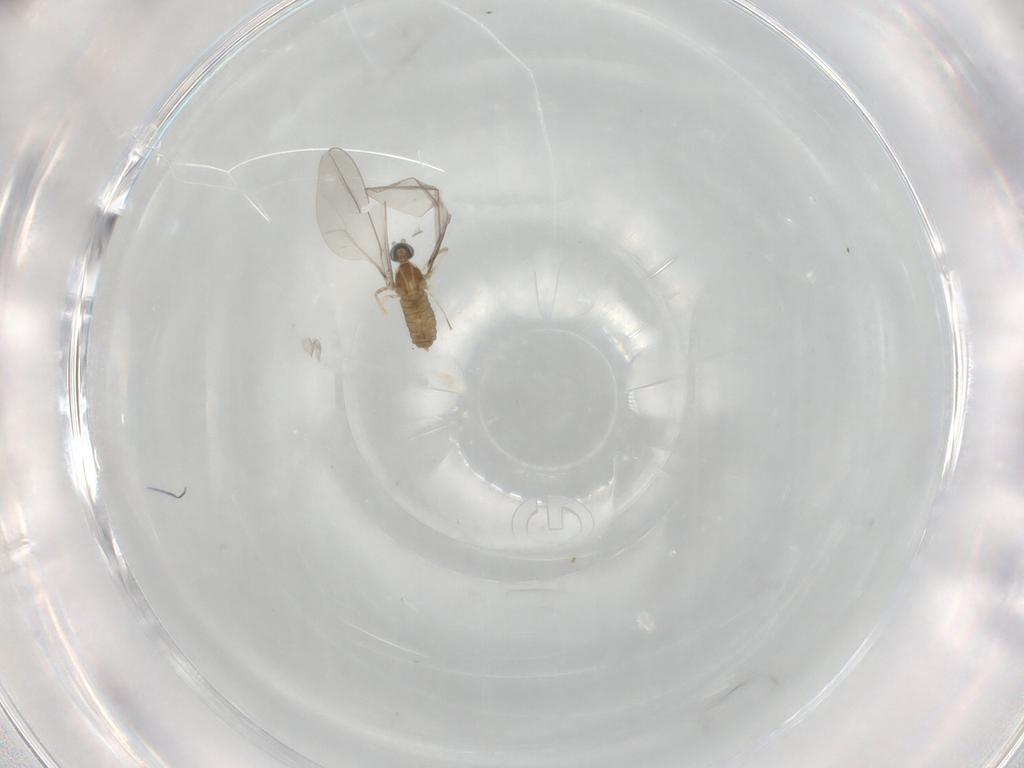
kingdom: Animalia
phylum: Arthropoda
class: Insecta
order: Diptera
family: Cecidomyiidae
